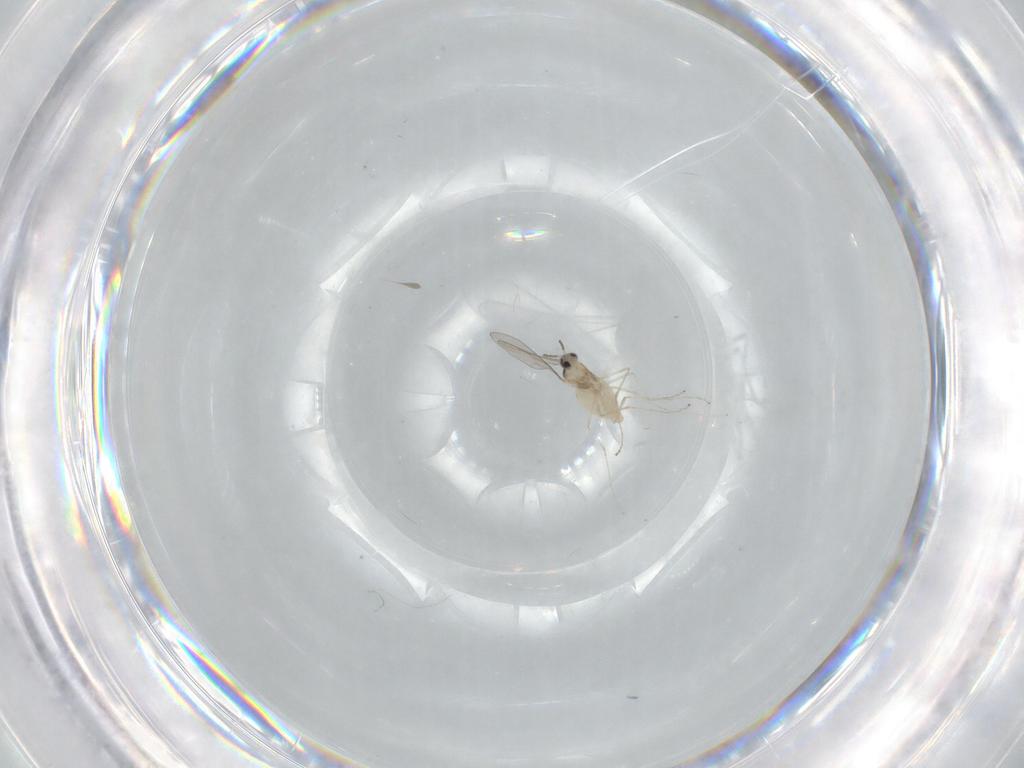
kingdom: Animalia
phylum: Arthropoda
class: Insecta
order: Diptera
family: Cecidomyiidae
